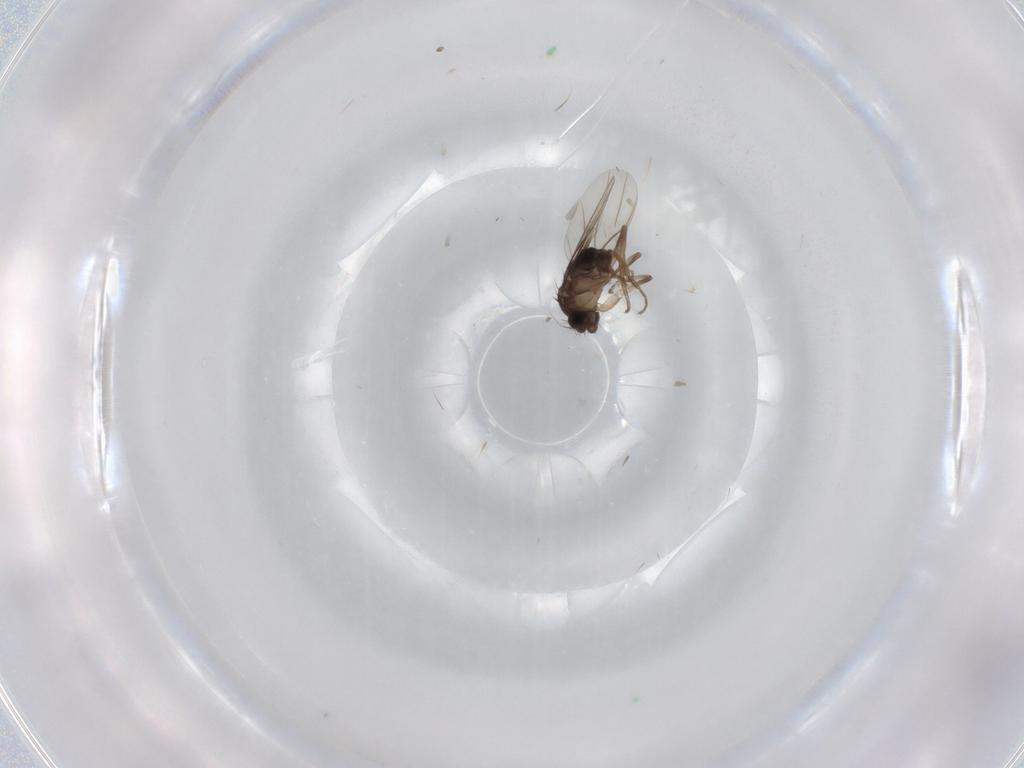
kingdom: Animalia
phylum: Arthropoda
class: Insecta
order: Diptera
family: Phoridae
